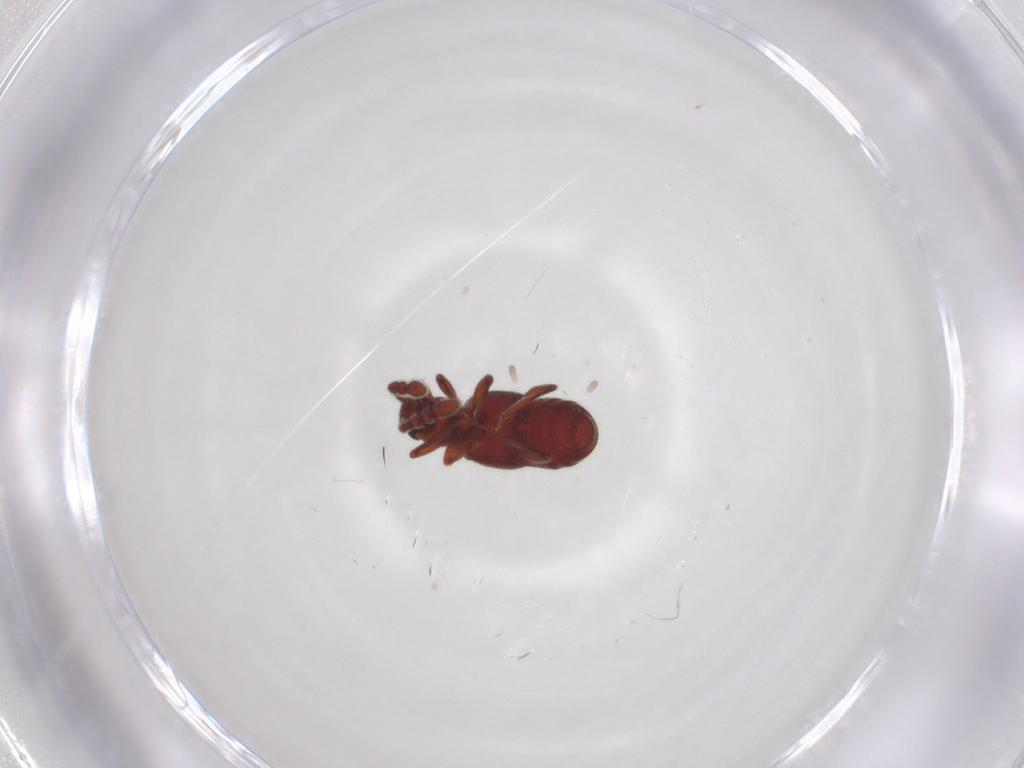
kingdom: Animalia
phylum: Arthropoda
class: Insecta
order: Coleoptera
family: Staphylinidae
